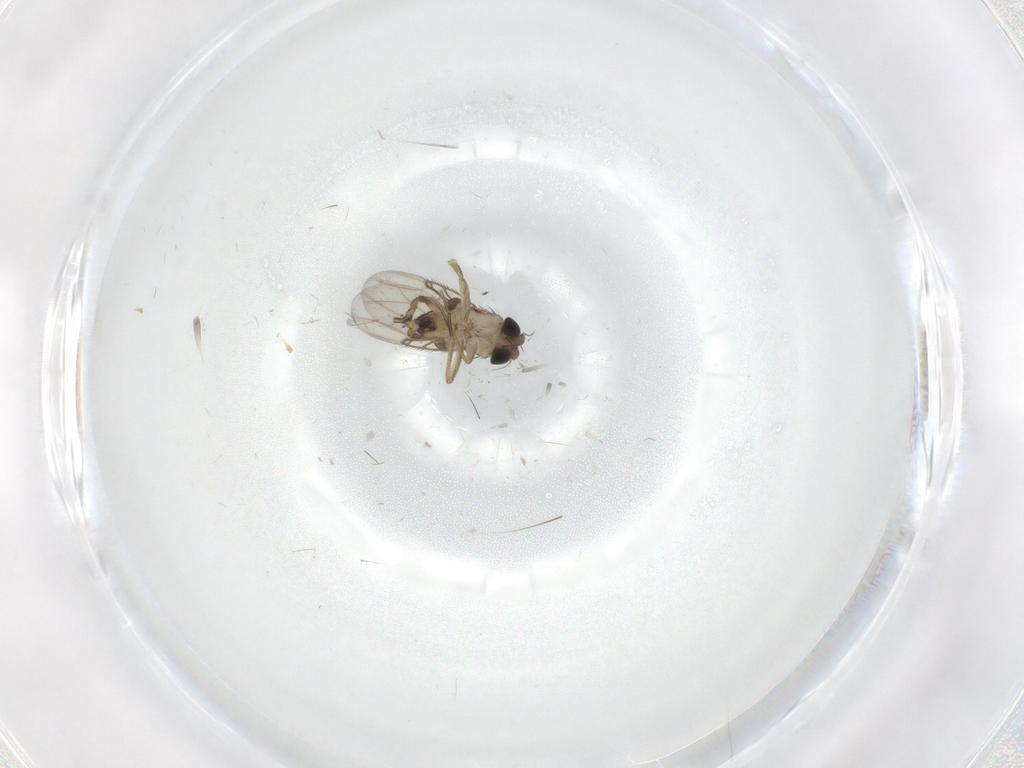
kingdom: Animalia
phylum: Arthropoda
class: Insecta
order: Diptera
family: Phoridae
